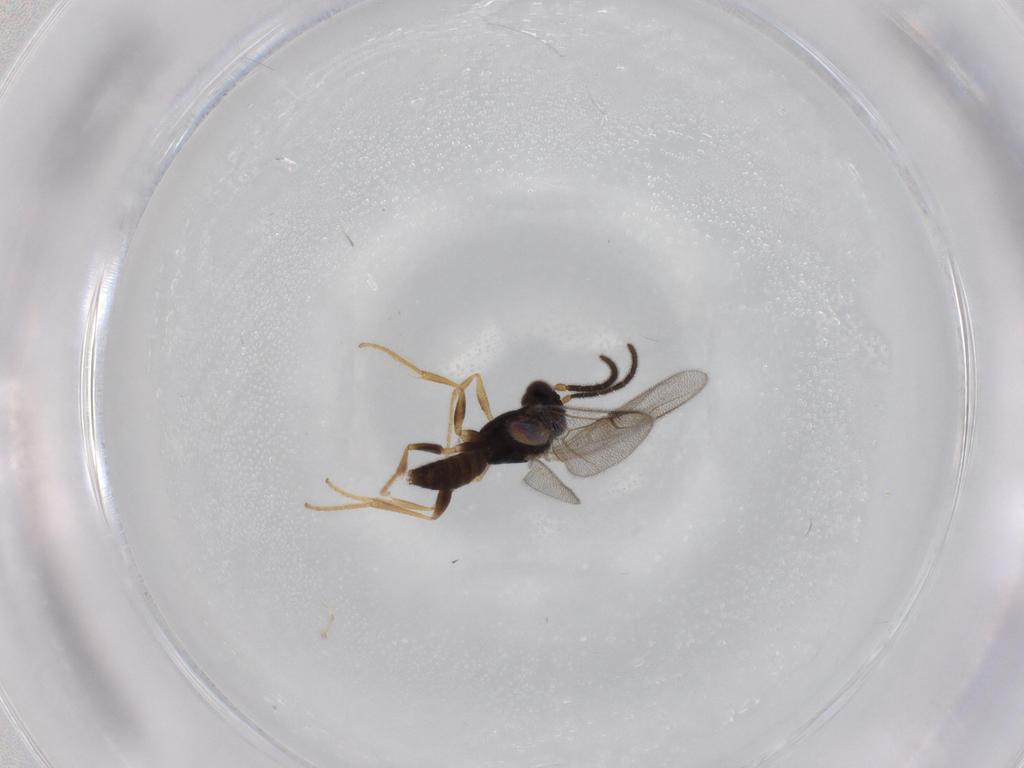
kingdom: Animalia
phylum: Arthropoda
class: Insecta
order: Hymenoptera
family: Dryinidae
